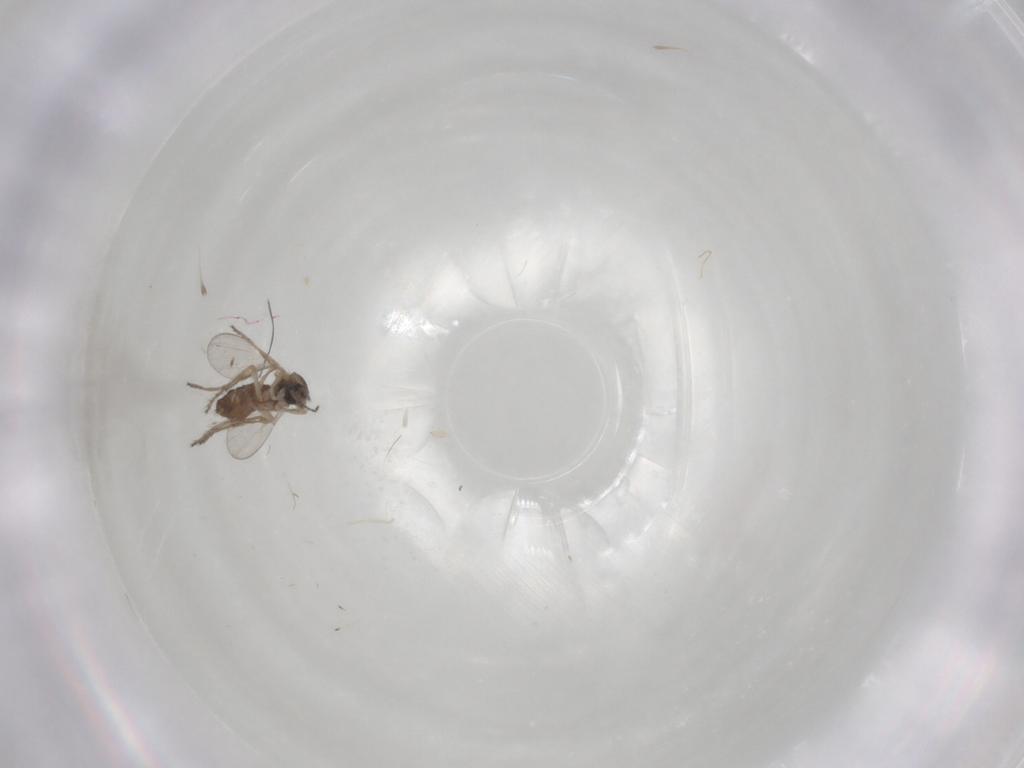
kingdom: Animalia
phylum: Arthropoda
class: Insecta
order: Diptera
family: Ceratopogonidae
